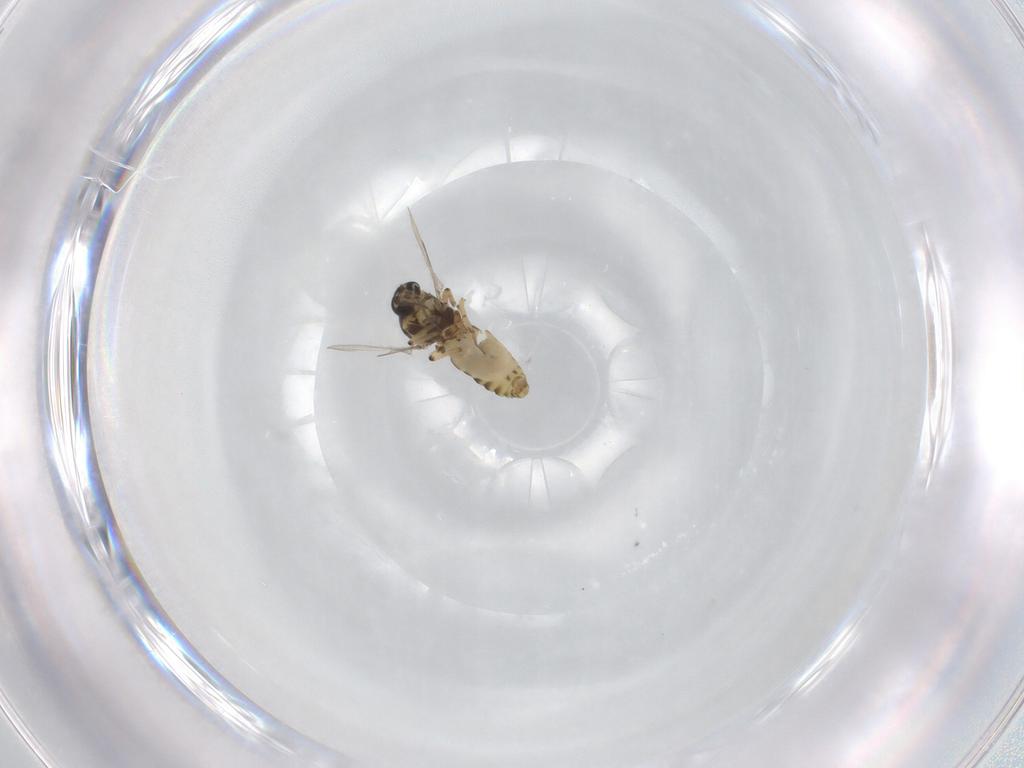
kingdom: Animalia
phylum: Arthropoda
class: Insecta
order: Diptera
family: Ceratopogonidae
